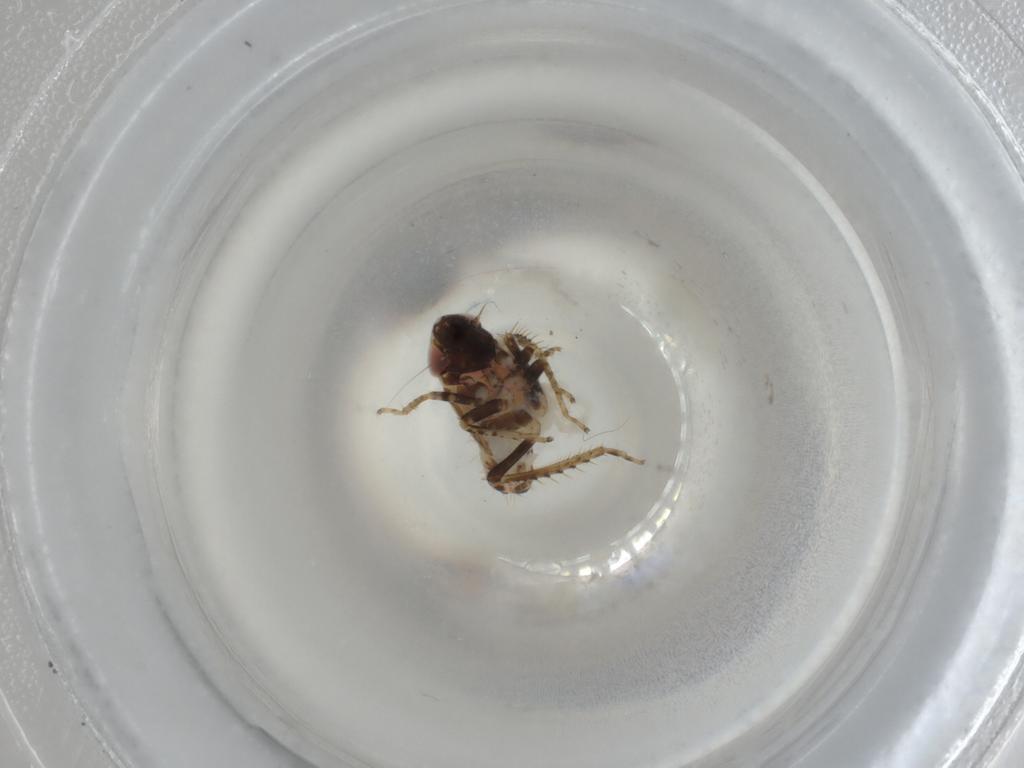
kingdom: Animalia
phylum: Arthropoda
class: Insecta
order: Hemiptera
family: Cicadellidae
